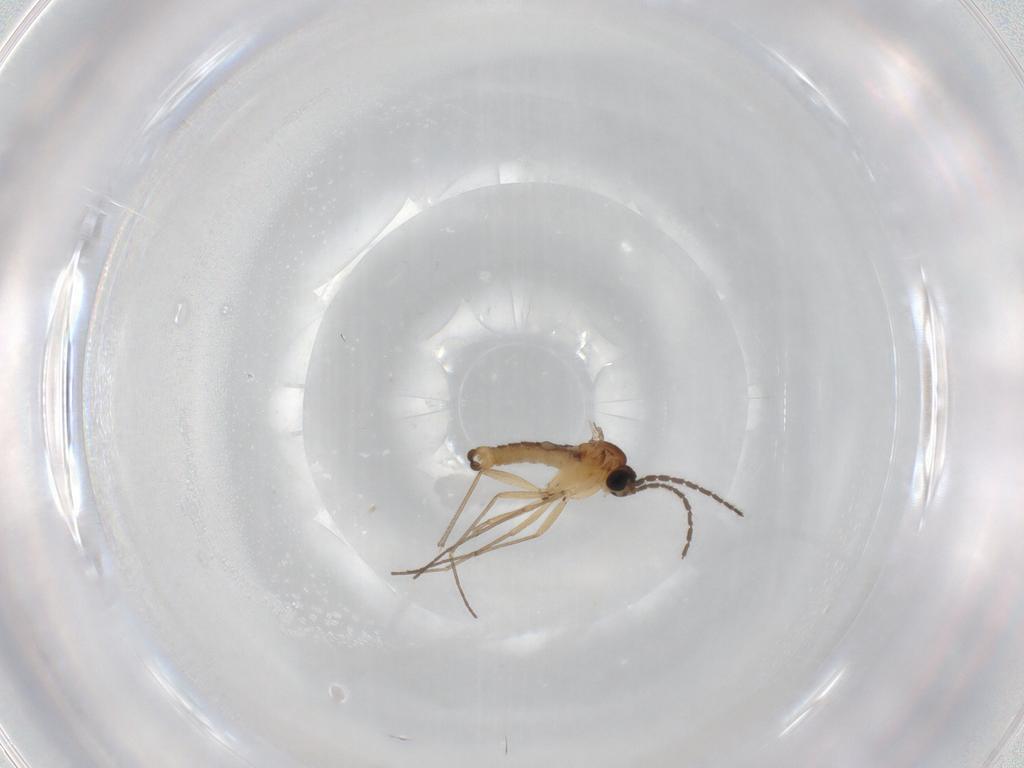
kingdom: Animalia
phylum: Arthropoda
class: Insecta
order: Diptera
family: Sciaridae
